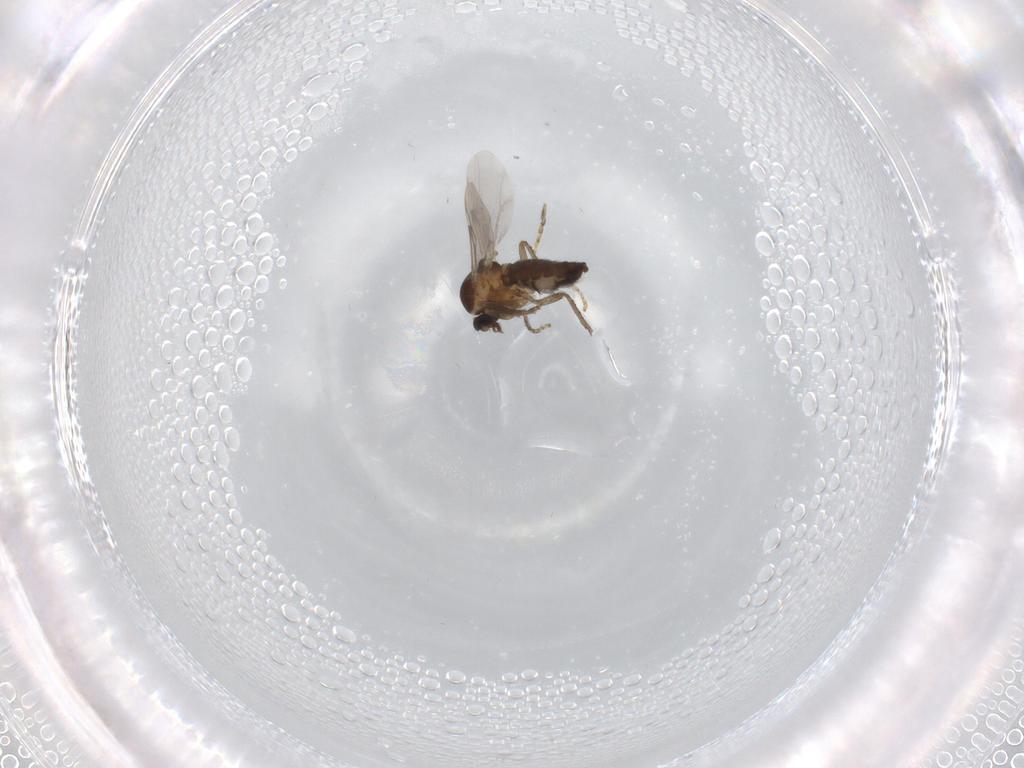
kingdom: Animalia
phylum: Arthropoda
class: Insecta
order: Diptera
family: Ceratopogonidae
